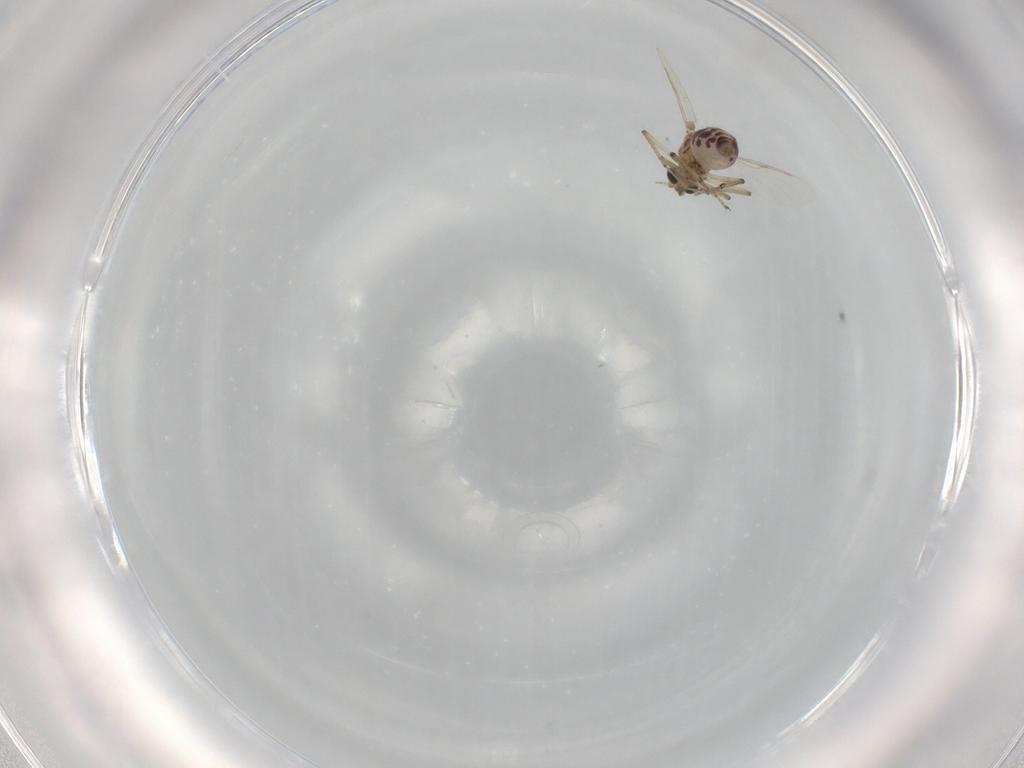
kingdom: Animalia
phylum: Arthropoda
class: Insecta
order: Diptera
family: Ceratopogonidae
